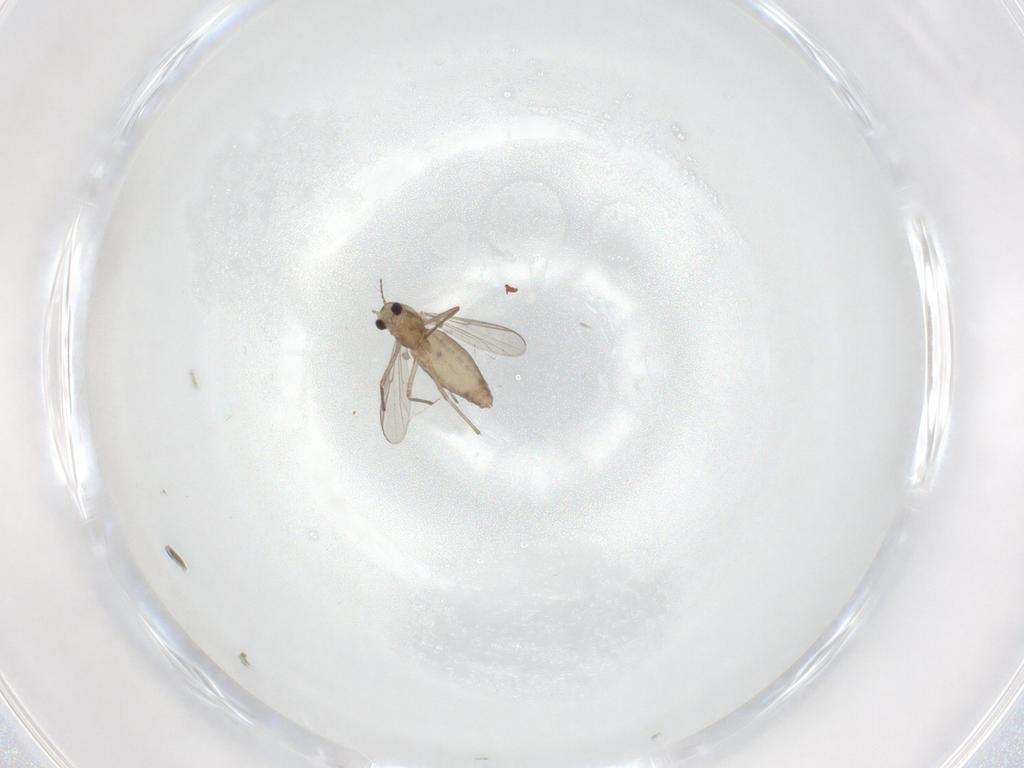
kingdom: Animalia
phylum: Arthropoda
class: Insecta
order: Diptera
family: Chironomidae
